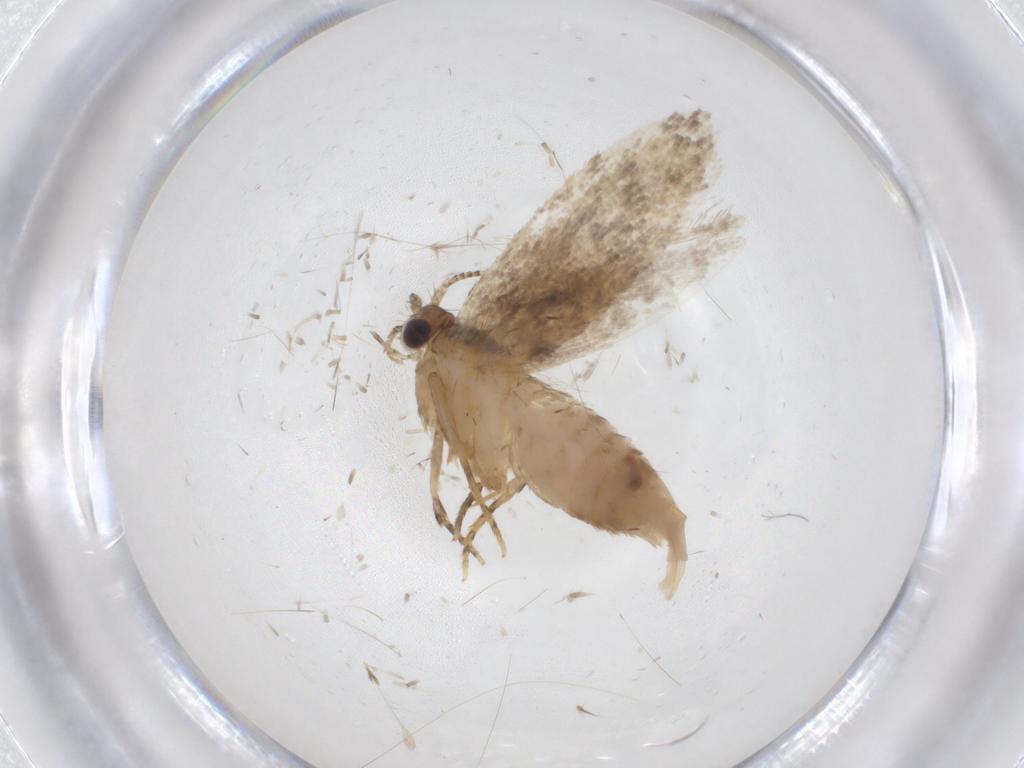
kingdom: Animalia
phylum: Arthropoda
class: Insecta
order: Lepidoptera
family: Tineidae
